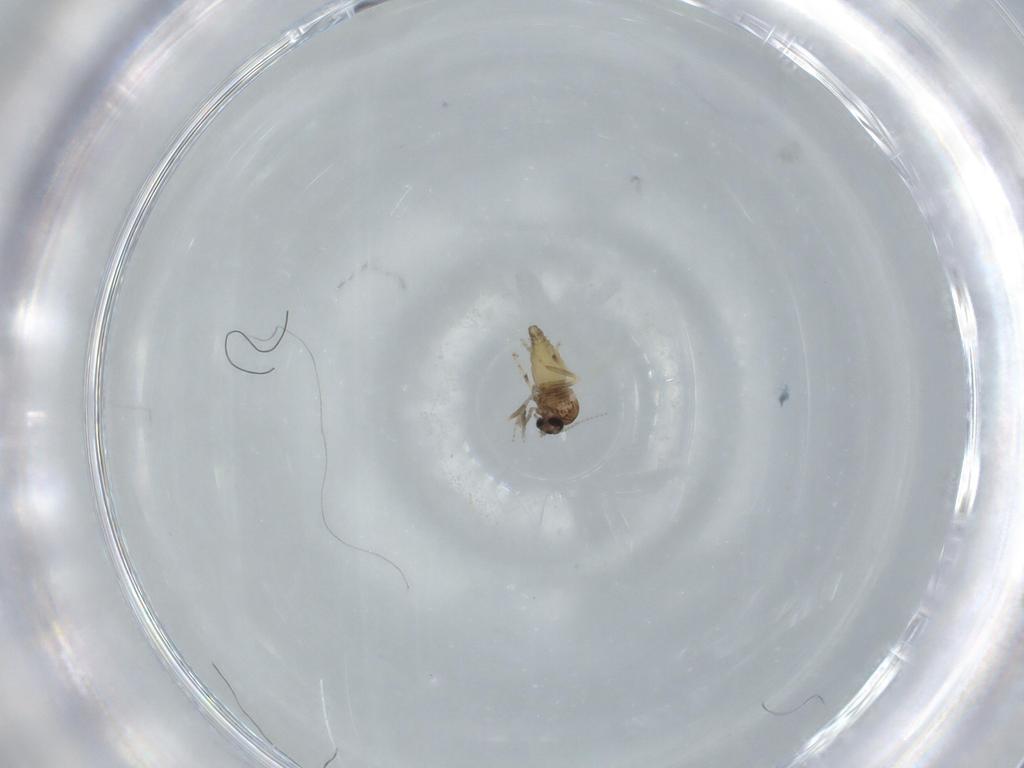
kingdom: Animalia
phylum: Arthropoda
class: Insecta
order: Diptera
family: Ceratopogonidae
